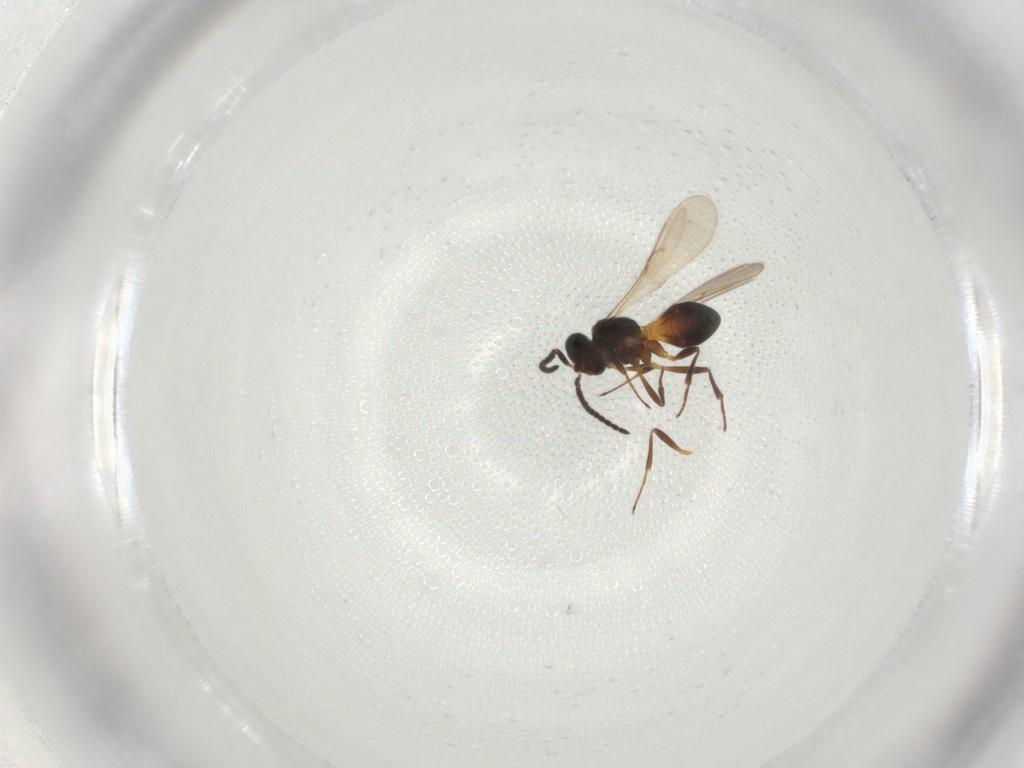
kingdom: Animalia
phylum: Arthropoda
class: Insecta
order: Hymenoptera
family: Scelionidae
